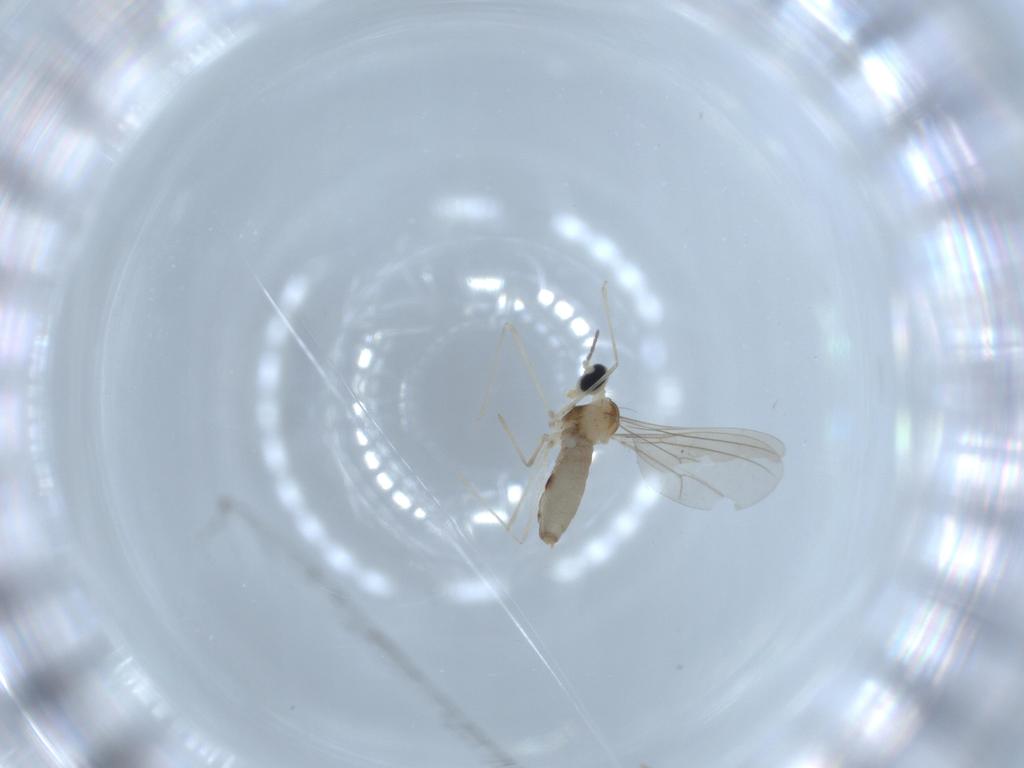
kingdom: Animalia
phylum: Arthropoda
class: Insecta
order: Diptera
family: Cecidomyiidae
